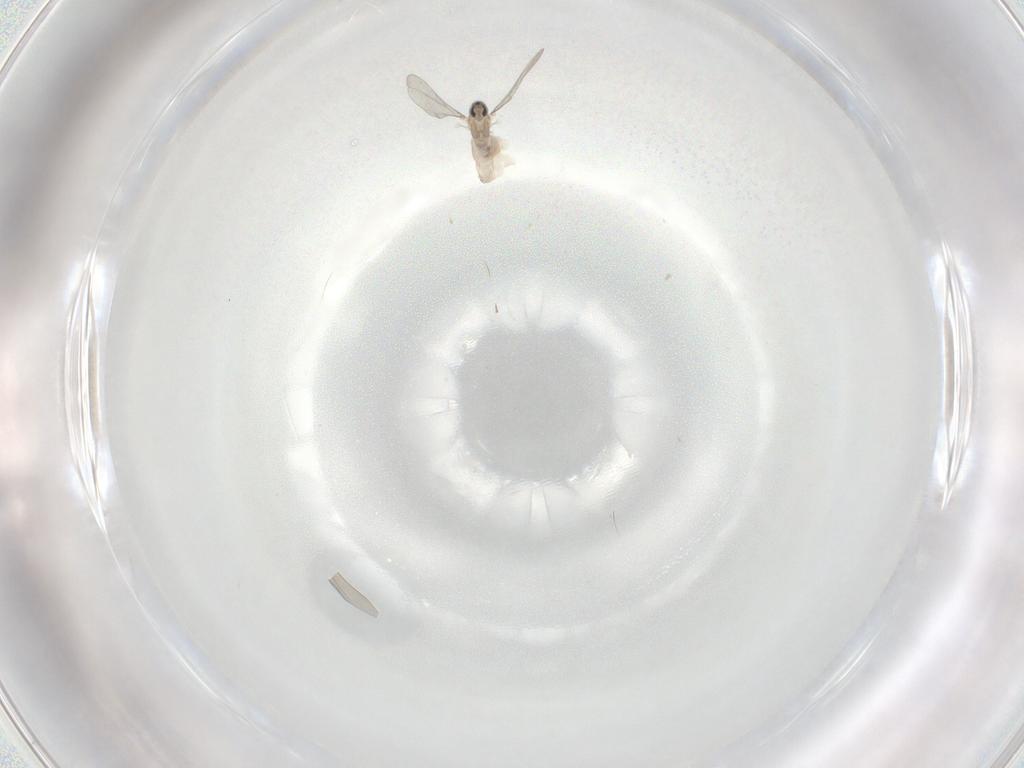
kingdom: Animalia
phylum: Arthropoda
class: Insecta
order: Diptera
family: Cecidomyiidae
